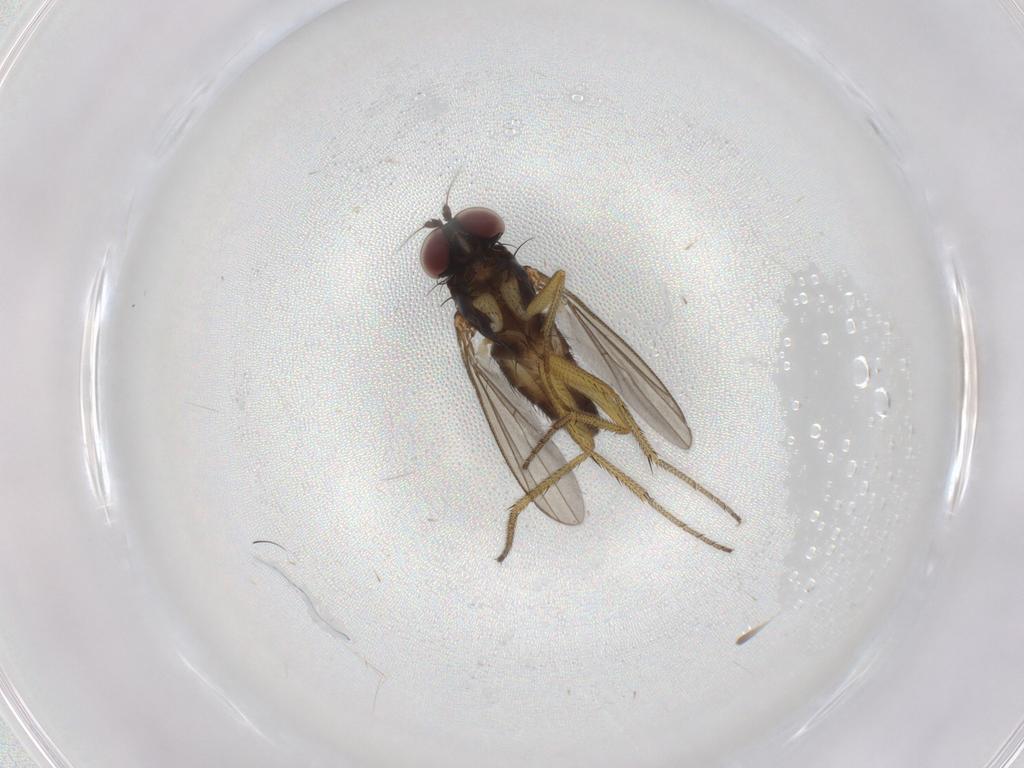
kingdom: Animalia
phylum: Arthropoda
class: Insecta
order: Diptera
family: Dolichopodidae
